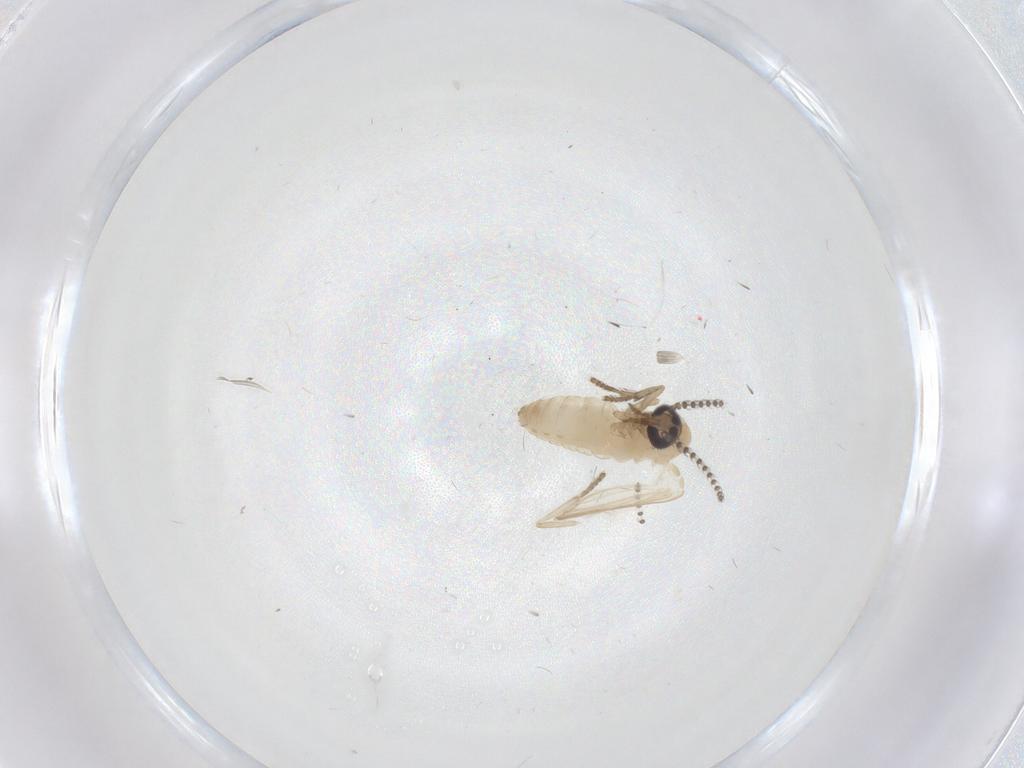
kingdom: Animalia
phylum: Arthropoda
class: Insecta
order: Diptera
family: Psychodidae
